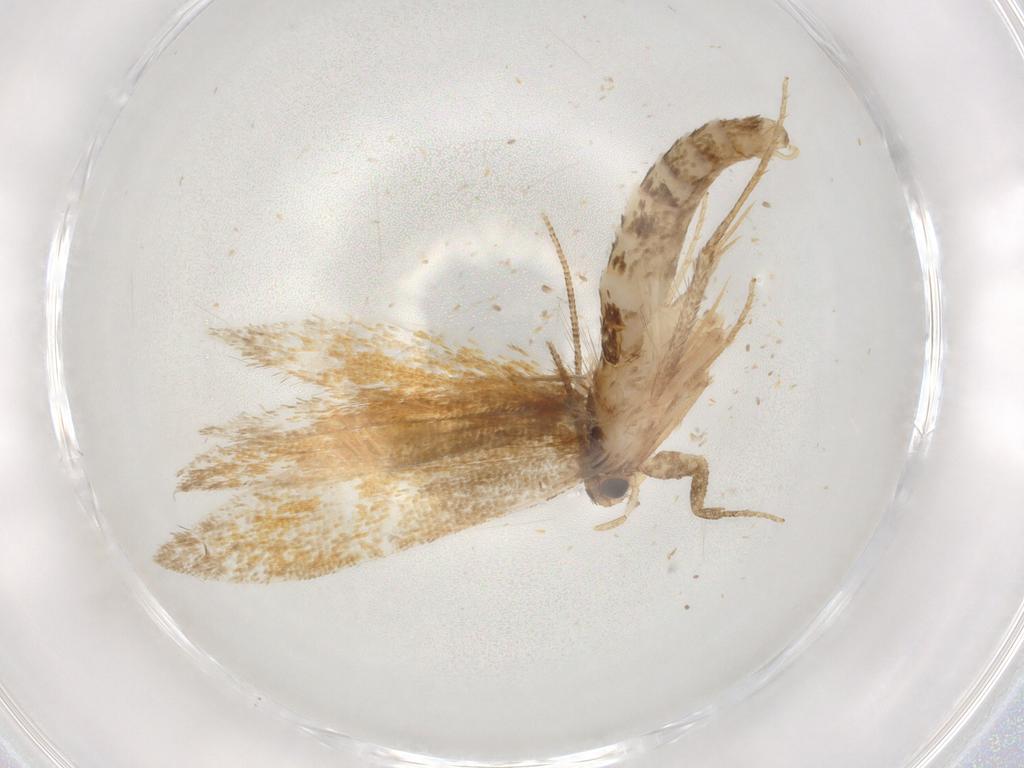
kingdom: Animalia
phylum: Arthropoda
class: Insecta
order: Lepidoptera
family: Tineidae
